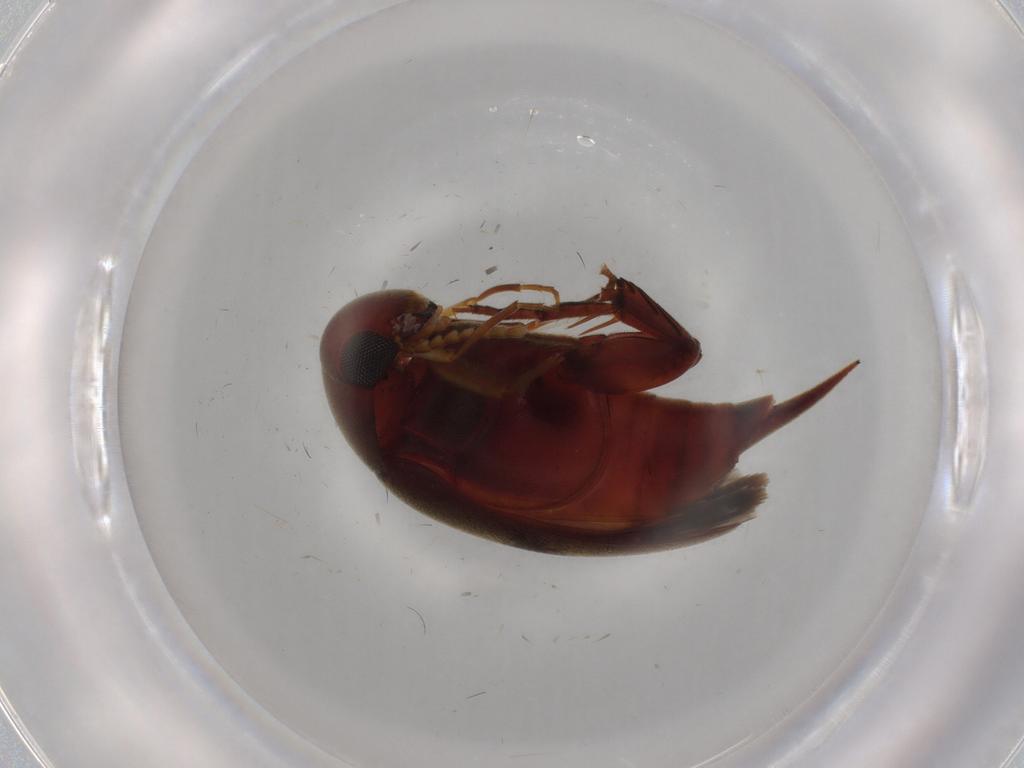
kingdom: Animalia
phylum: Arthropoda
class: Insecta
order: Coleoptera
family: Mordellidae
